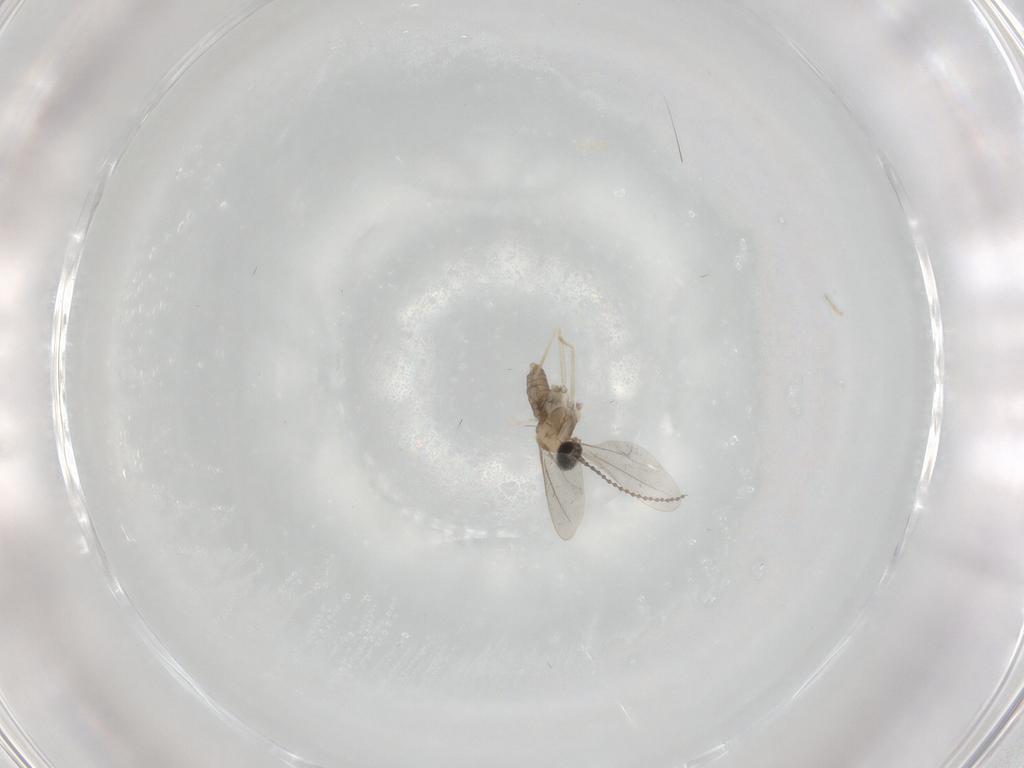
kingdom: Animalia
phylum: Arthropoda
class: Insecta
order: Diptera
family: Cecidomyiidae
